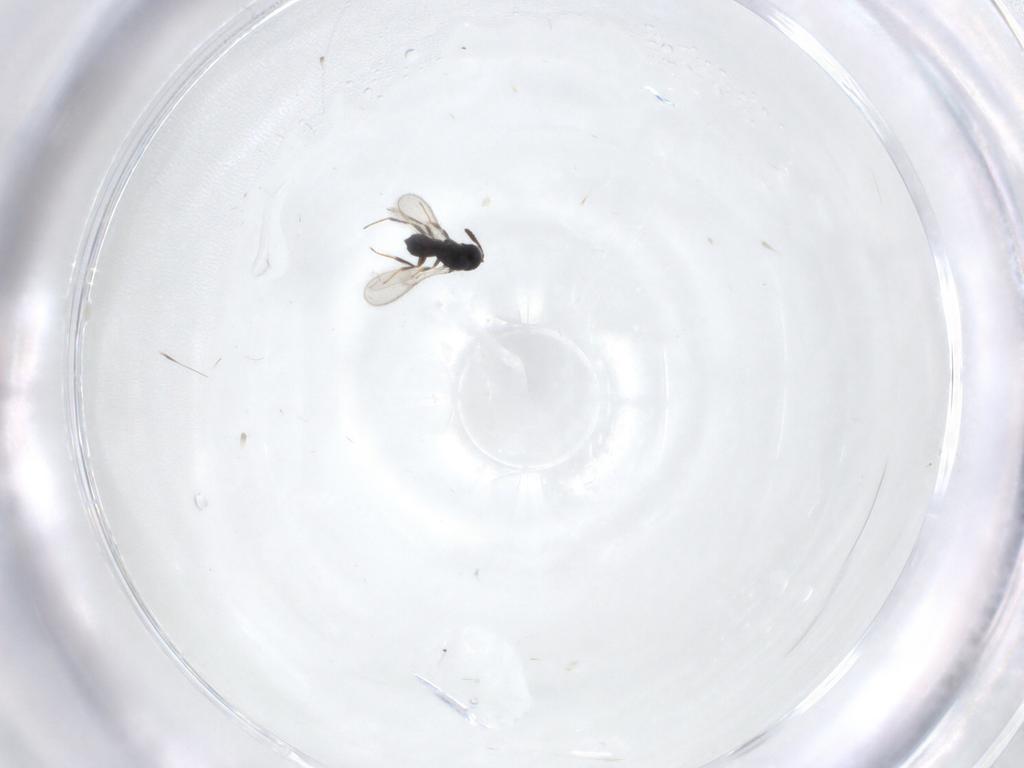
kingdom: Animalia
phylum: Arthropoda
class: Insecta
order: Hymenoptera
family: Scelionidae
